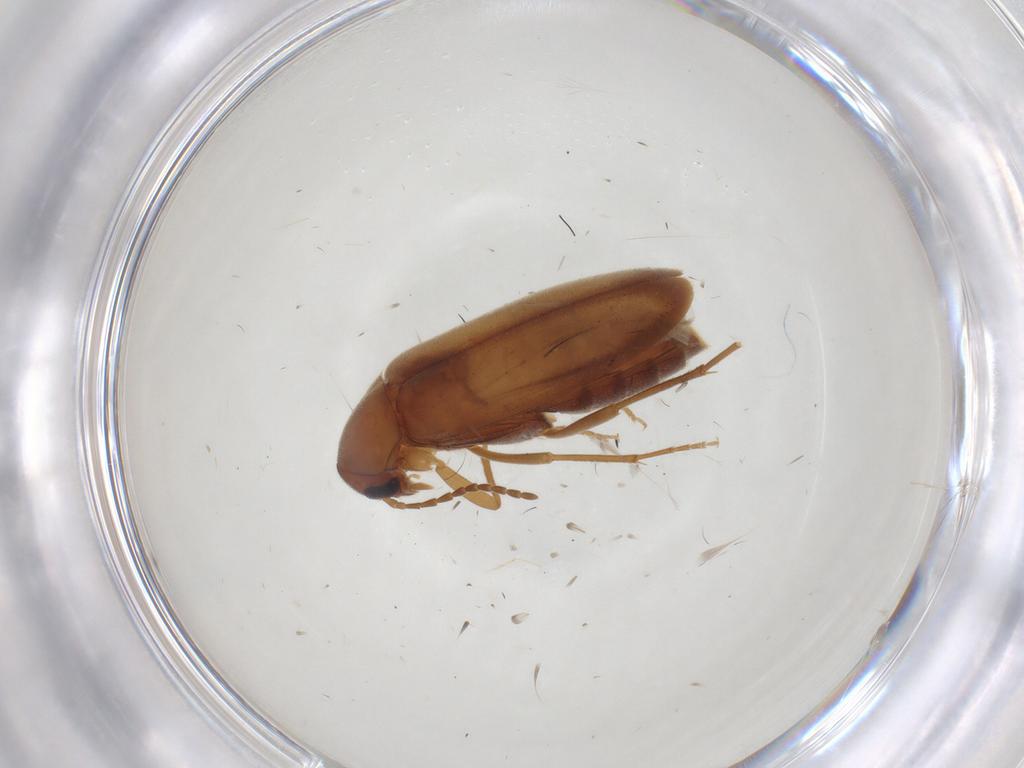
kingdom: Animalia
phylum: Arthropoda
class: Insecta
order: Coleoptera
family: Scraptiidae
